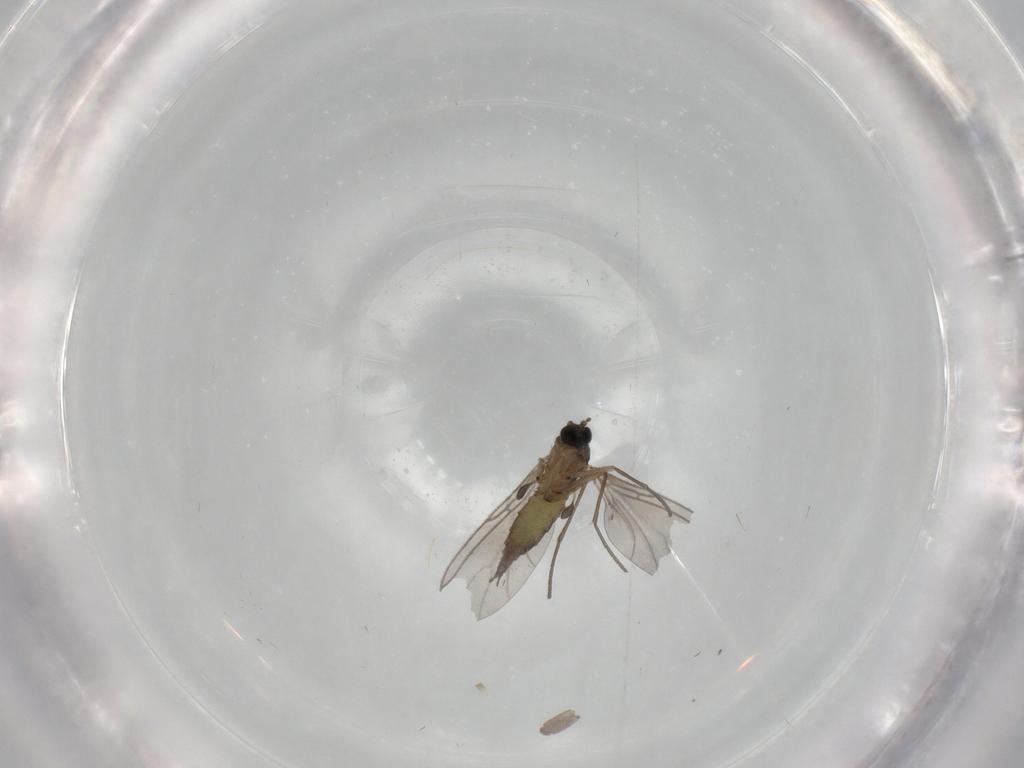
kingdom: Animalia
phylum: Arthropoda
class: Insecta
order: Diptera
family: Sciaridae
